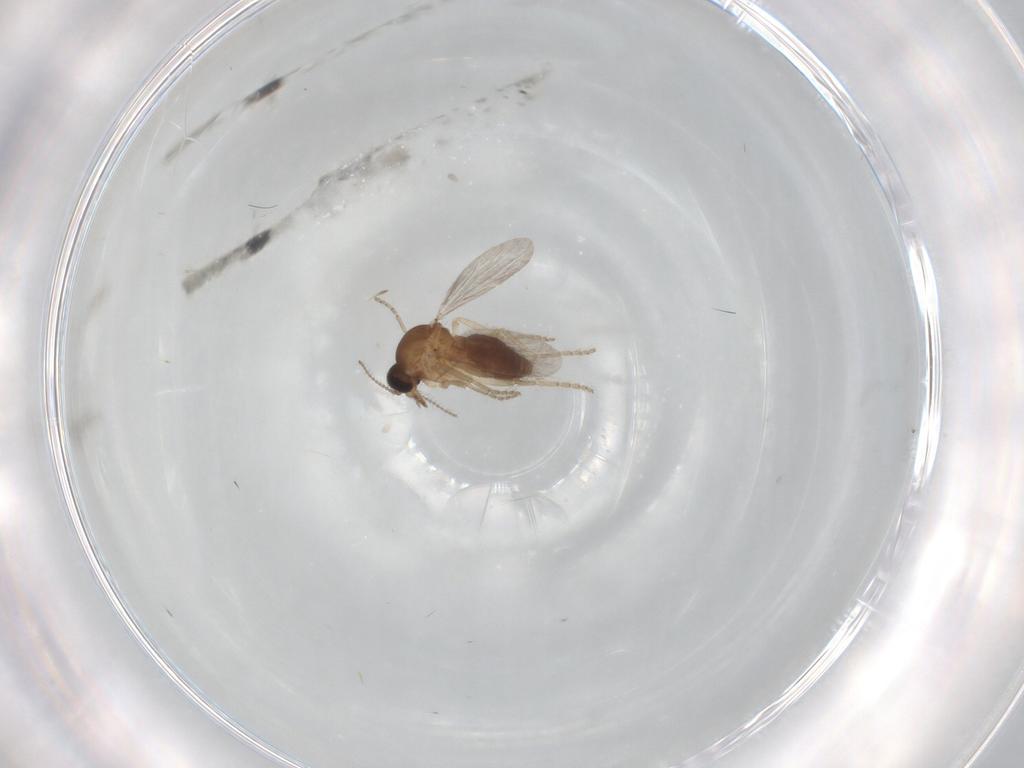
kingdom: Animalia
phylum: Arthropoda
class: Insecta
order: Diptera
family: Ceratopogonidae
